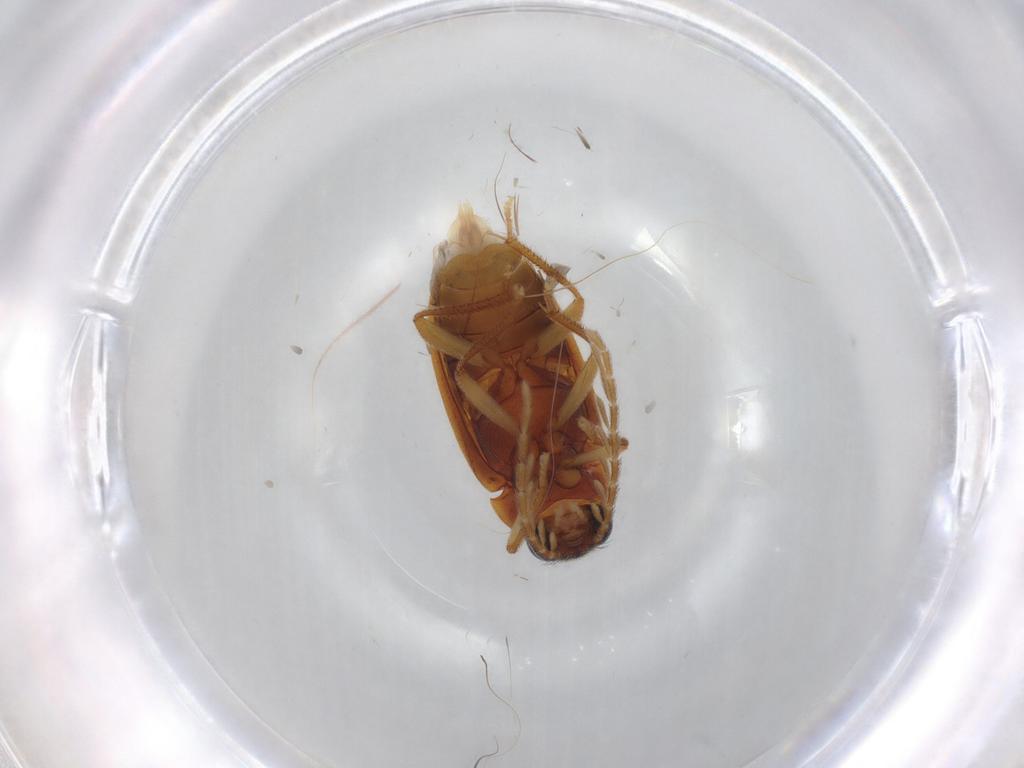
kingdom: Animalia
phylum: Arthropoda
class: Insecta
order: Coleoptera
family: Ptilodactylidae
